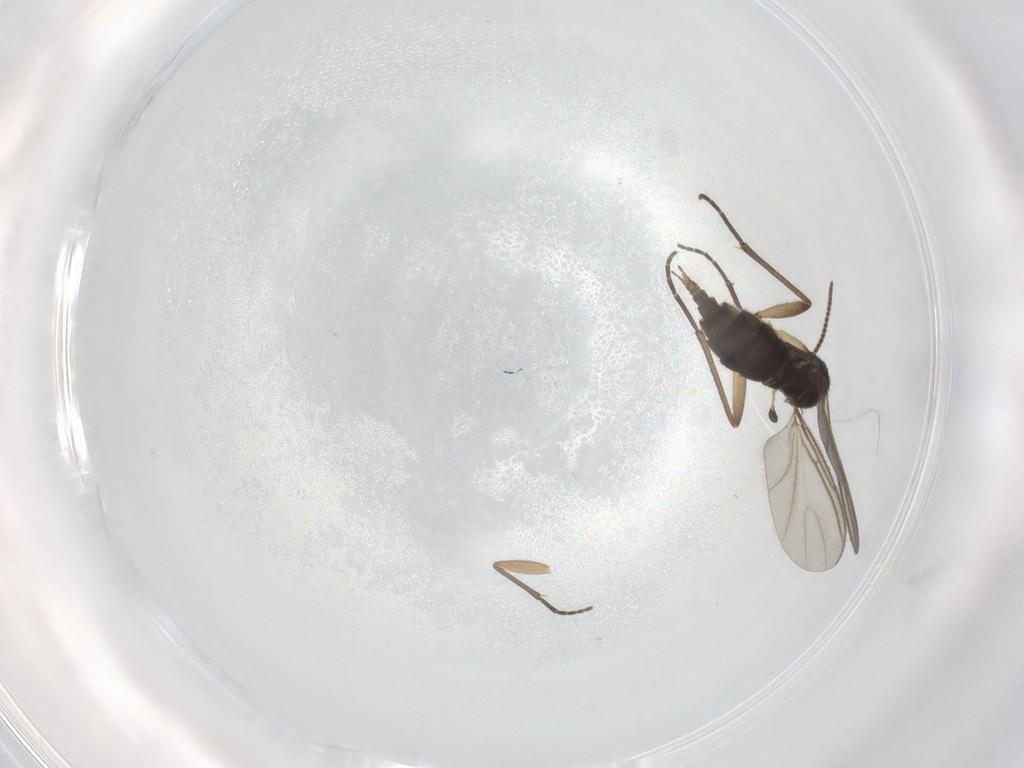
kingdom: Animalia
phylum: Arthropoda
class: Insecta
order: Diptera
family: Sciaridae
